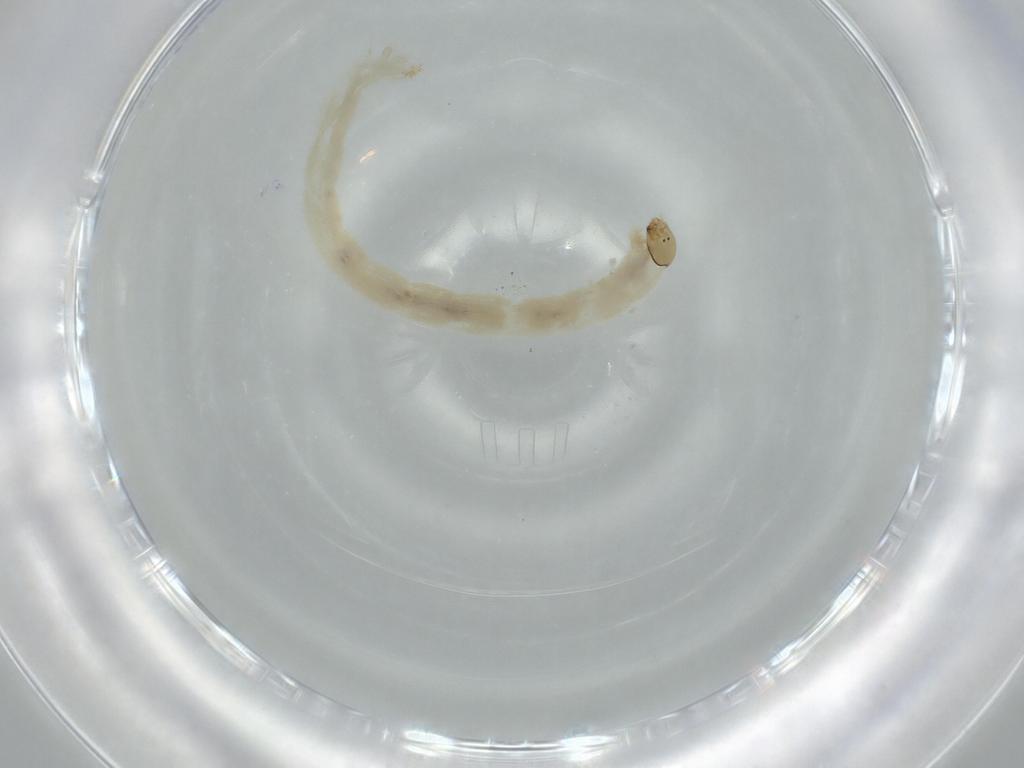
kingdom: Animalia
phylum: Arthropoda
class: Insecta
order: Diptera
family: Chironomidae
